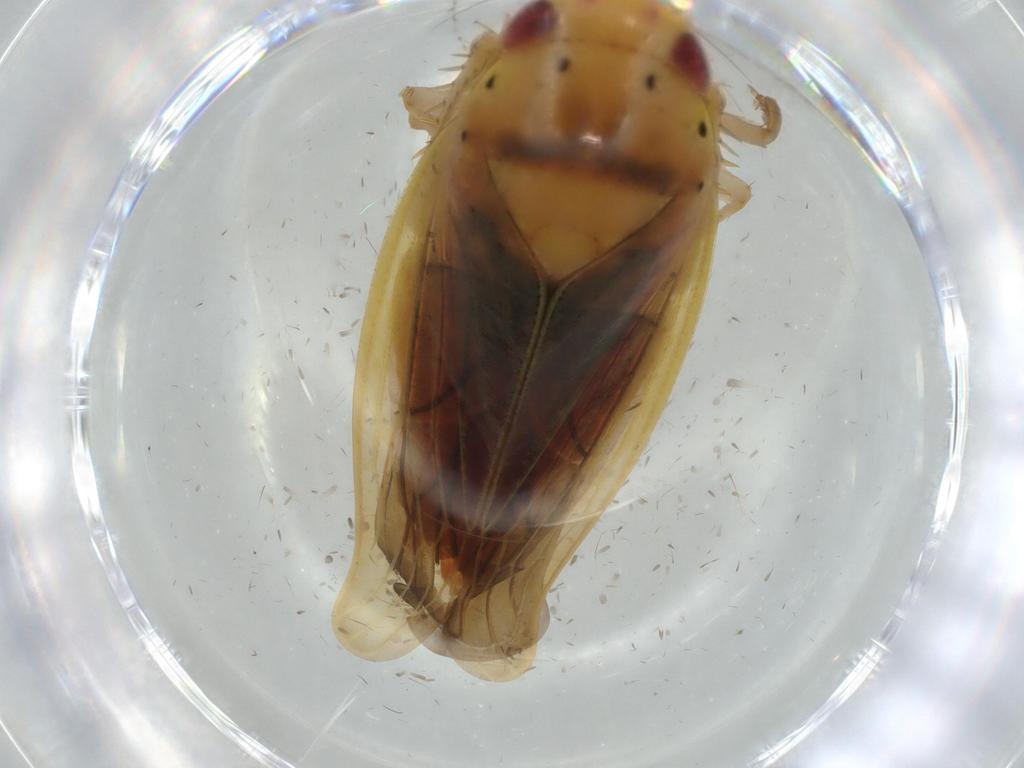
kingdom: Animalia
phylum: Arthropoda
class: Insecta
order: Hemiptera
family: Cicadellidae
